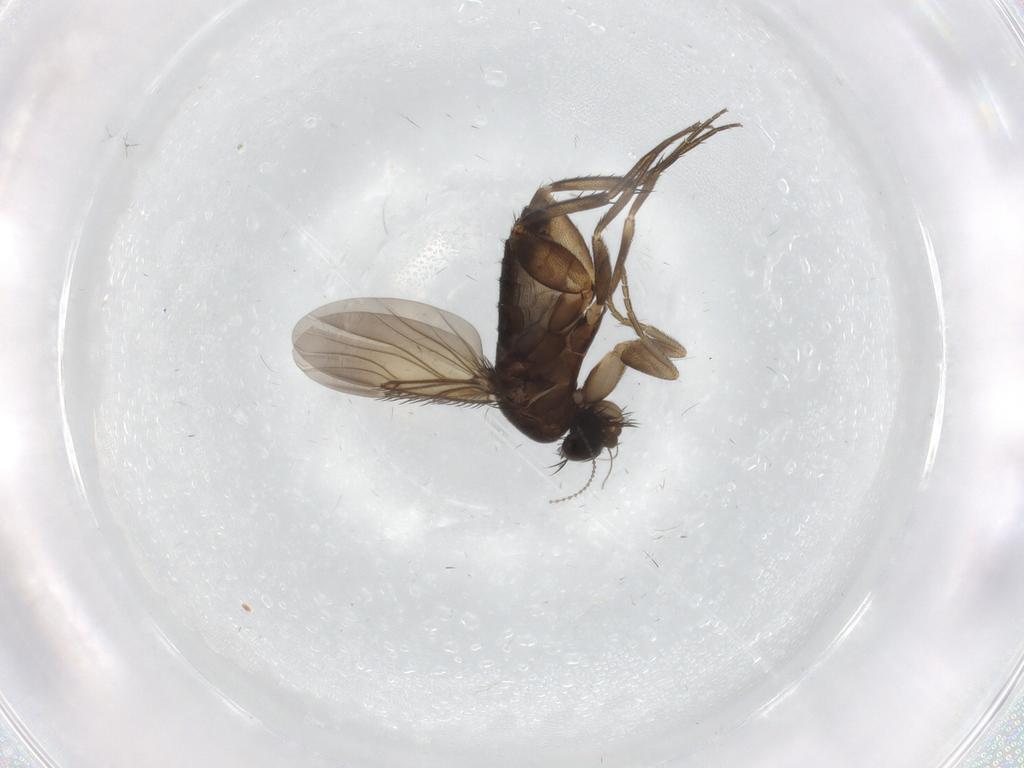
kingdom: Animalia
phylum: Arthropoda
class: Insecta
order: Diptera
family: Phoridae
